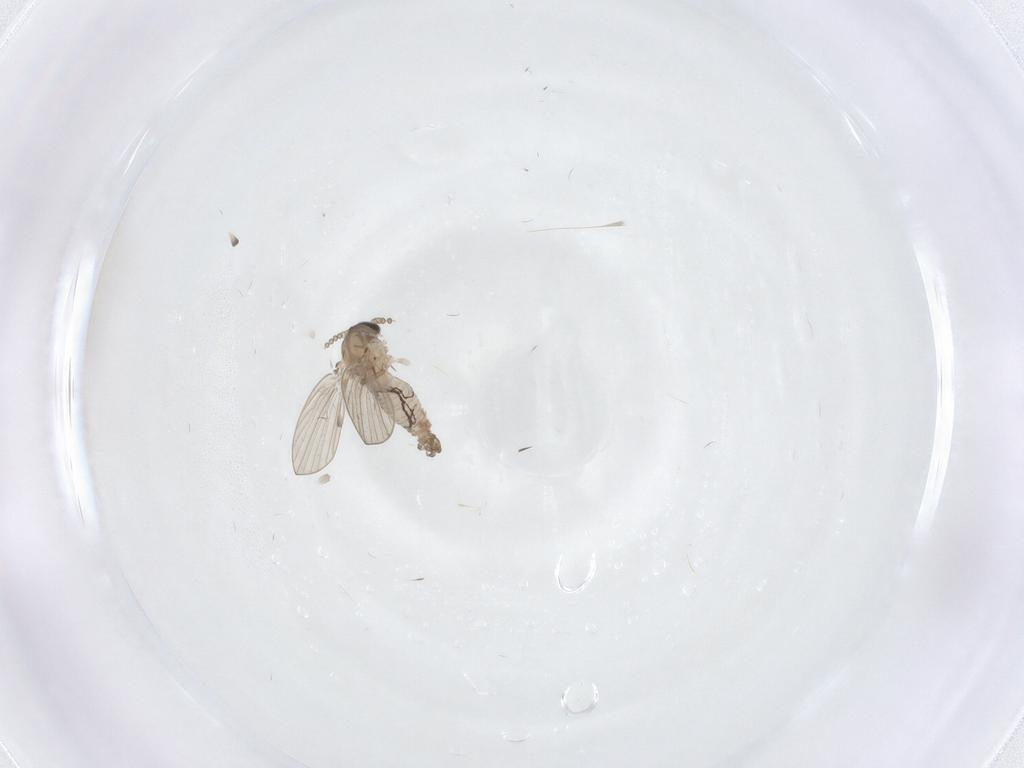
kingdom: Animalia
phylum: Arthropoda
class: Insecta
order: Diptera
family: Psychodidae
